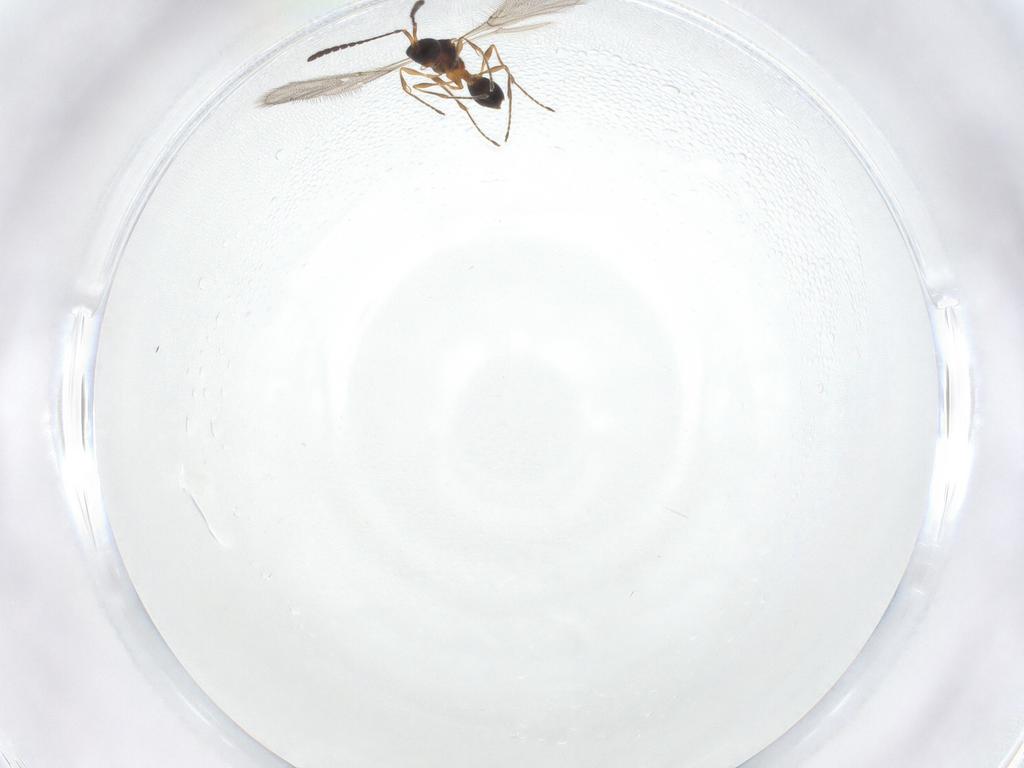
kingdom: Animalia
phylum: Arthropoda
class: Insecta
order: Hymenoptera
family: Diapriidae
